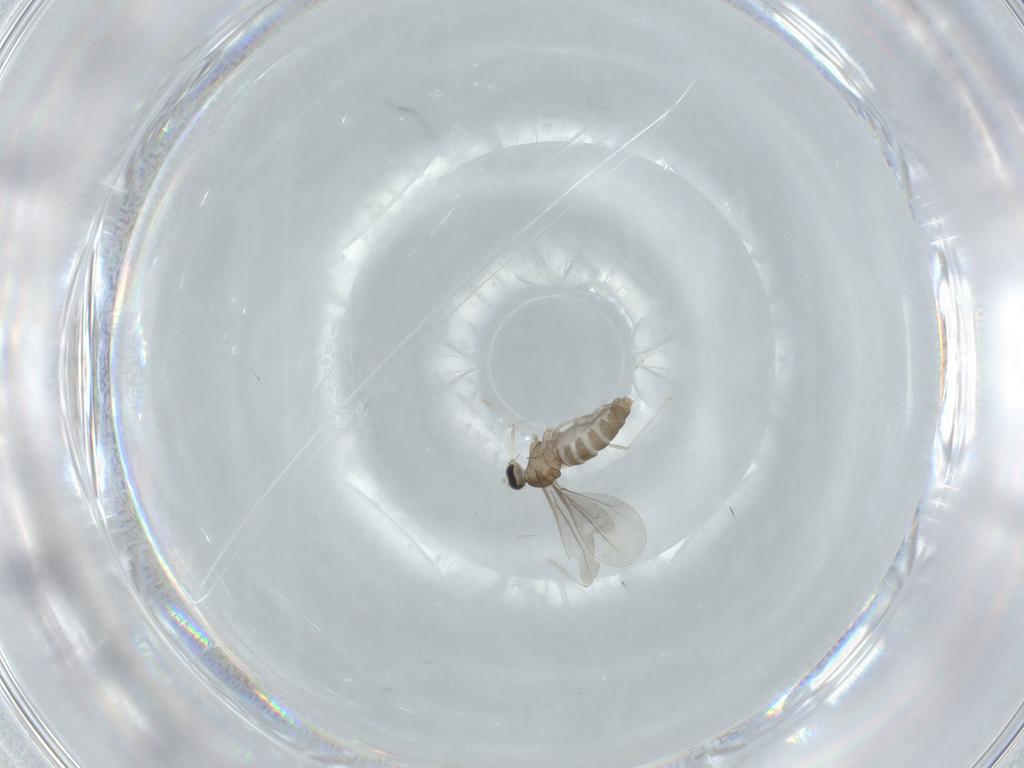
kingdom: Animalia
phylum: Arthropoda
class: Insecta
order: Diptera
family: Cecidomyiidae
